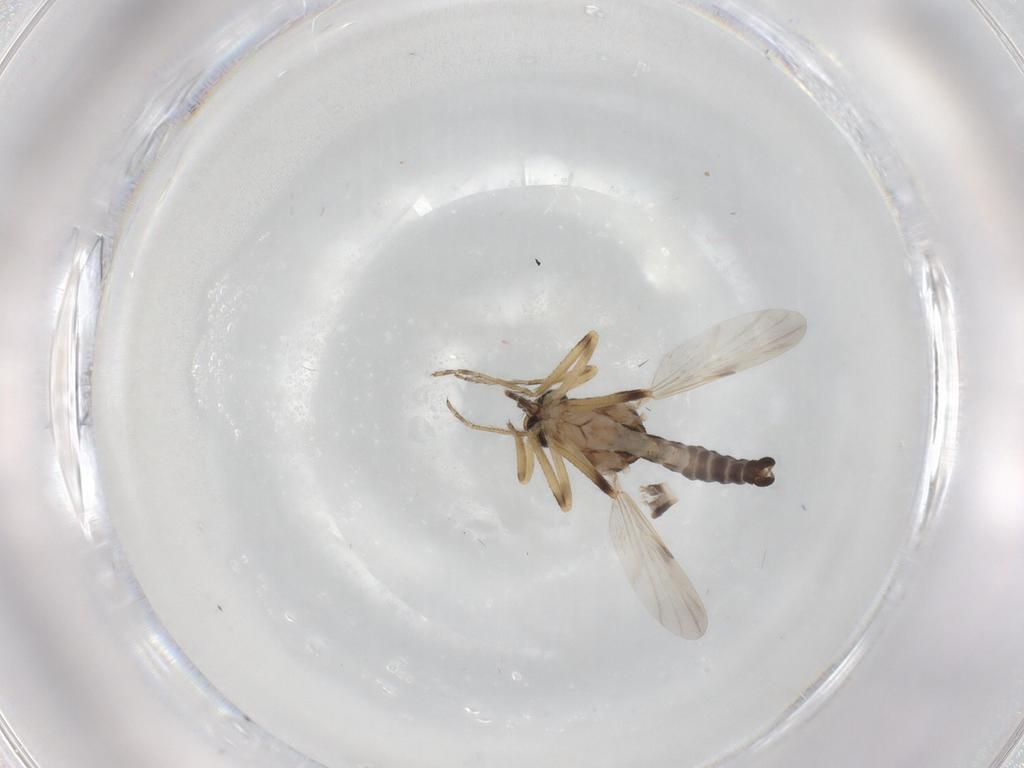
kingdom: Animalia
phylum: Arthropoda
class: Insecta
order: Diptera
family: Ceratopogonidae
